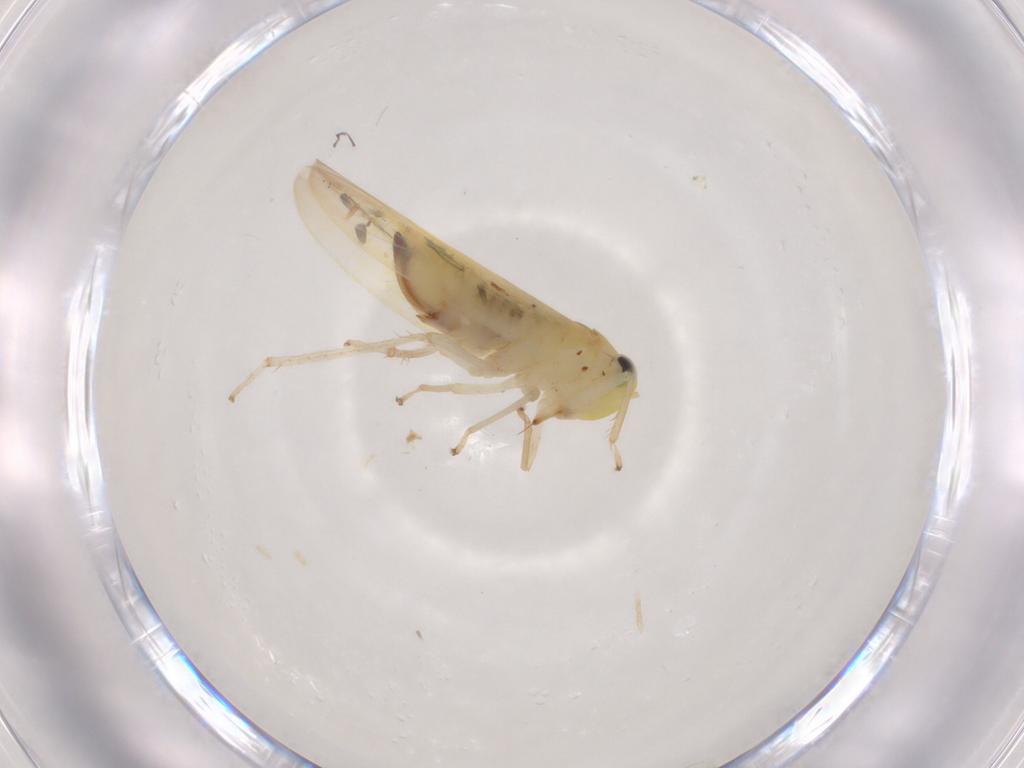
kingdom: Animalia
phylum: Arthropoda
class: Insecta
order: Hemiptera
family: Cicadellidae
